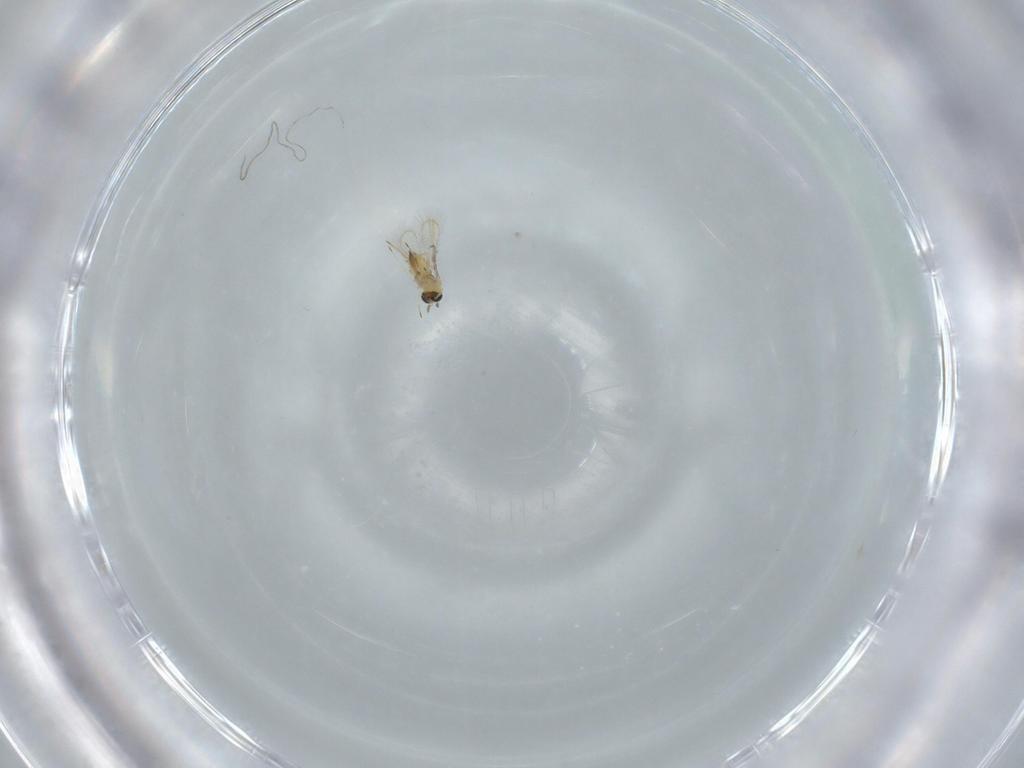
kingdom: Animalia
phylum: Arthropoda
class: Insecta
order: Hymenoptera
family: Trichogrammatidae
